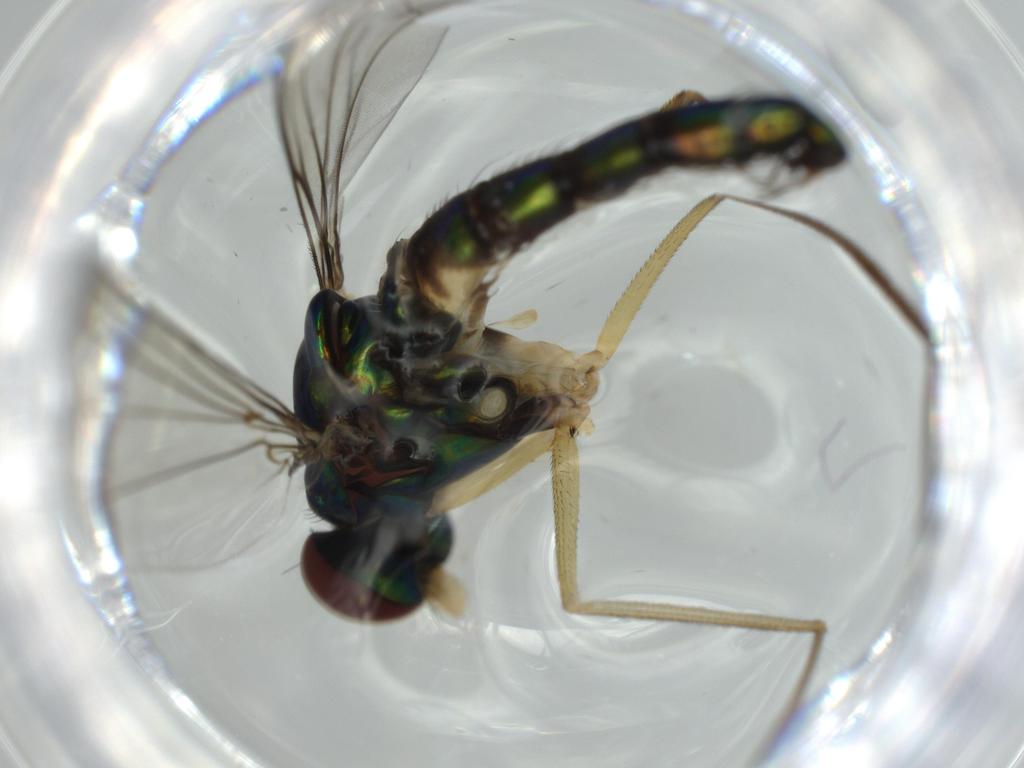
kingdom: Animalia
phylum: Arthropoda
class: Insecta
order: Diptera
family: Dolichopodidae
